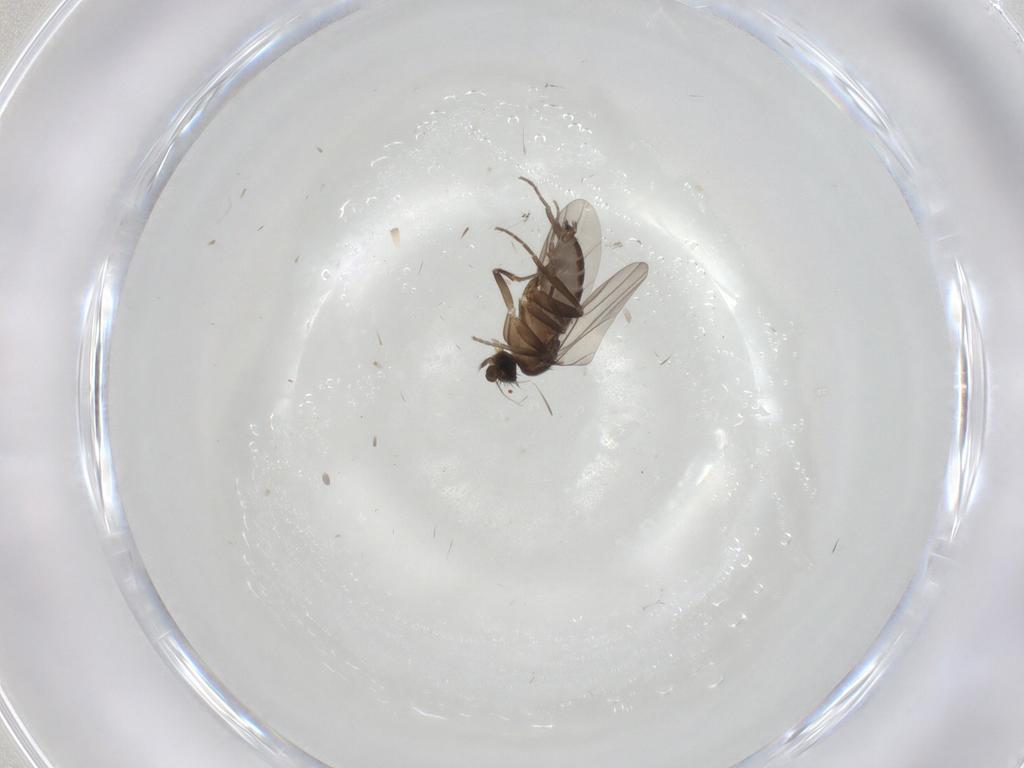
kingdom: Animalia
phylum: Arthropoda
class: Insecta
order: Diptera
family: Phoridae
